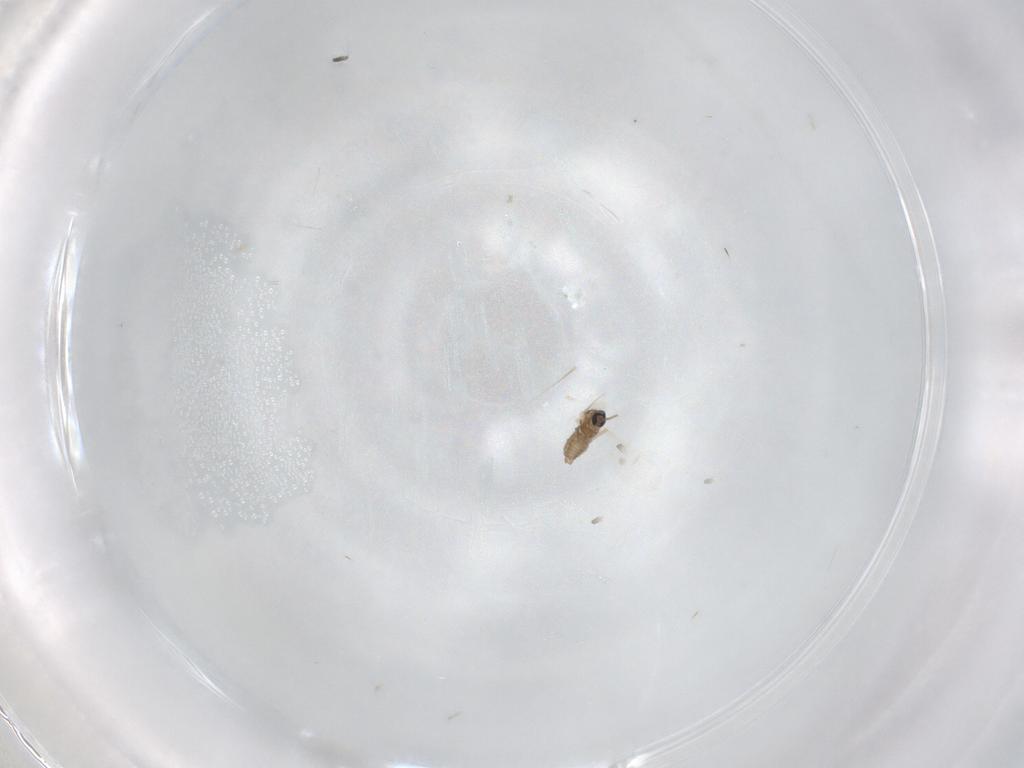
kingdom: Animalia
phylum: Arthropoda
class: Insecta
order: Diptera
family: Cecidomyiidae
